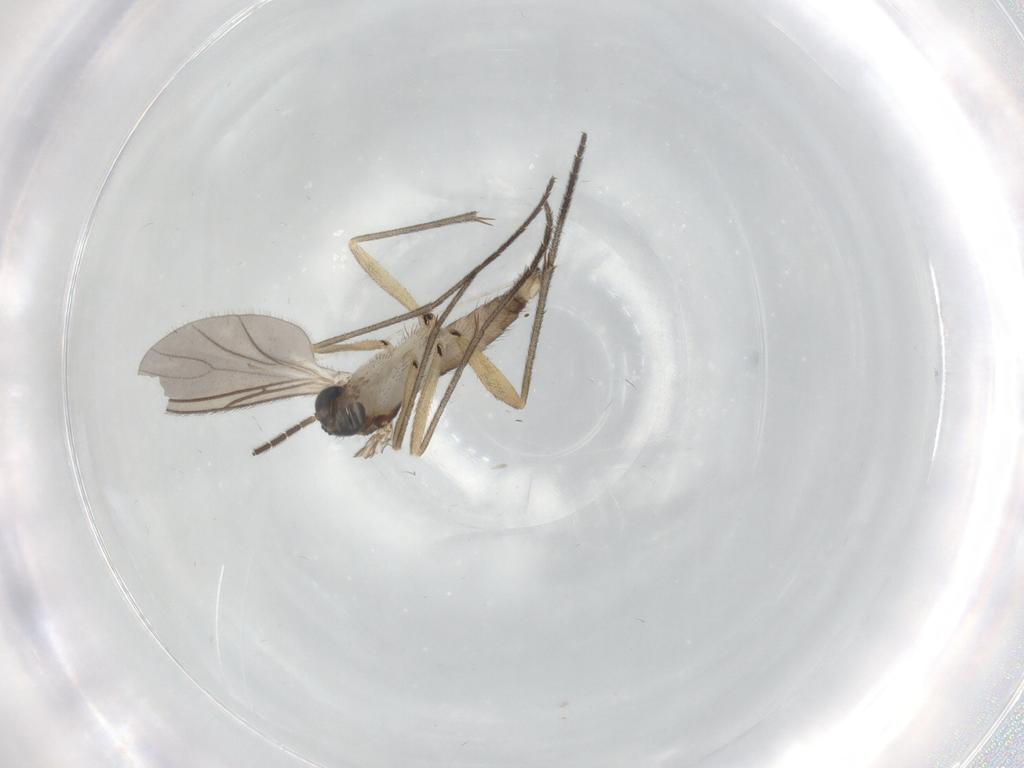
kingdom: Animalia
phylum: Arthropoda
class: Insecta
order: Diptera
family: Sciaridae
